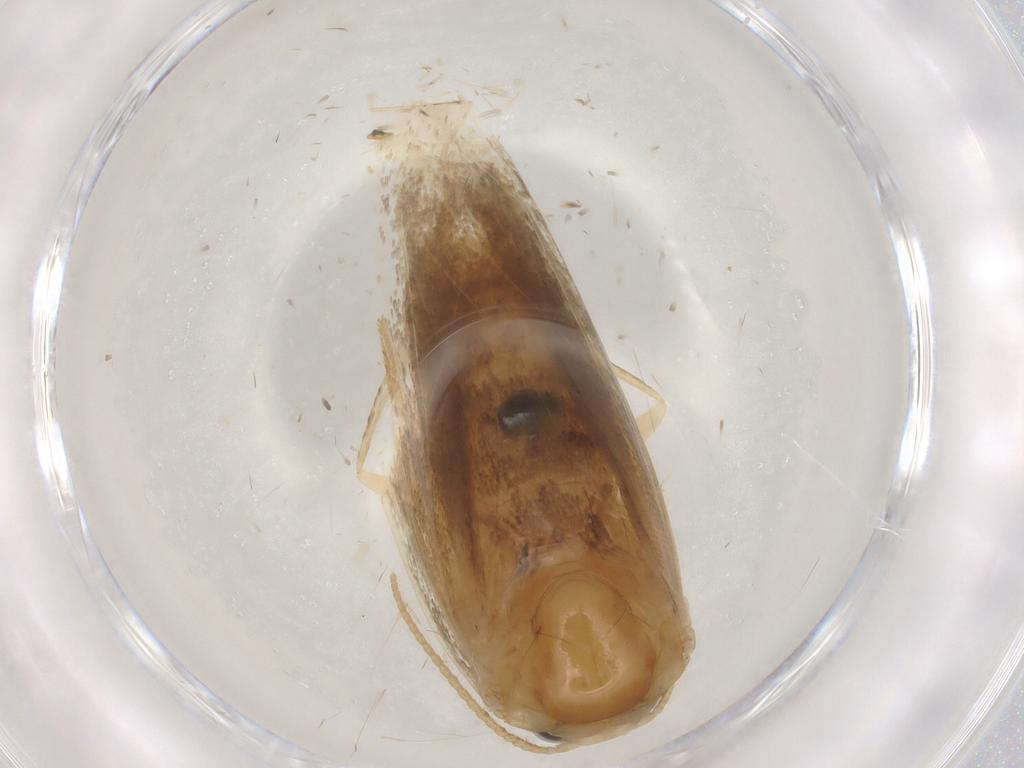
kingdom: Animalia
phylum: Arthropoda
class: Insecta
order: Lepidoptera
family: Erebidae
